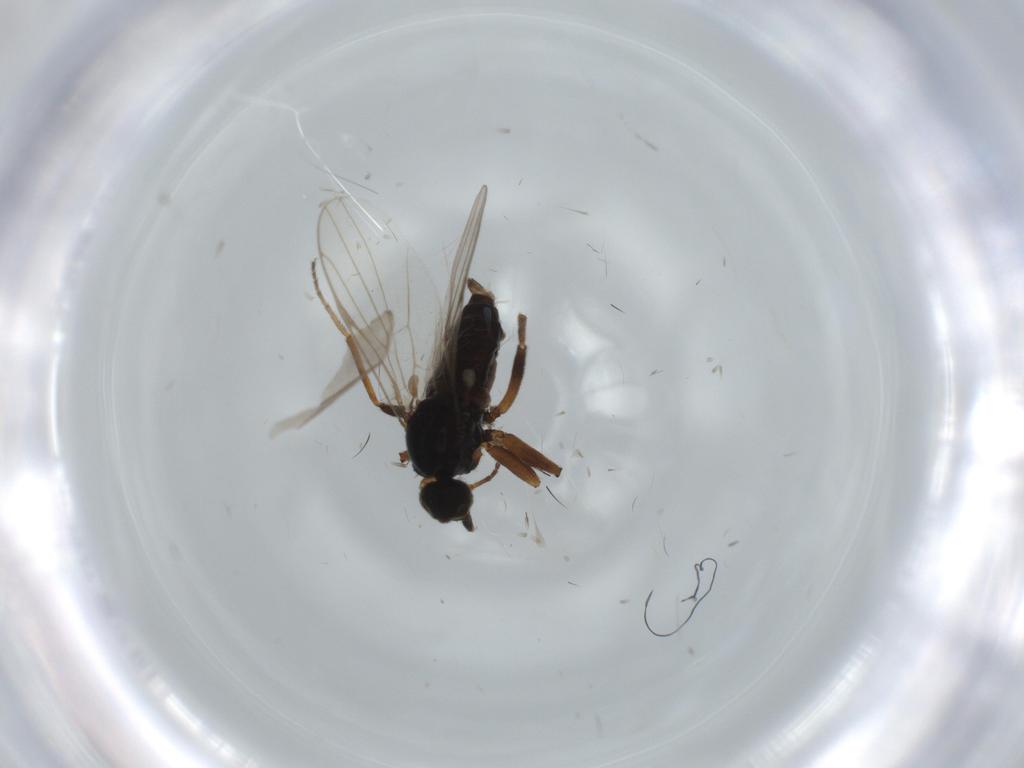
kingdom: Animalia
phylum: Arthropoda
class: Insecta
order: Diptera
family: Hybotidae
